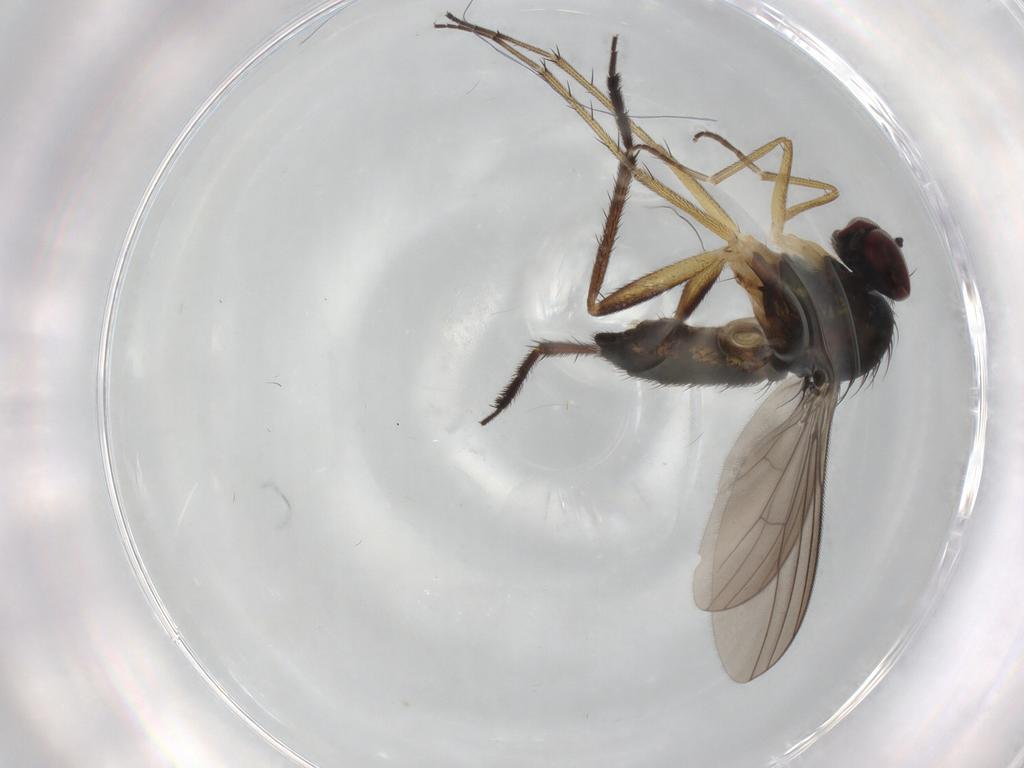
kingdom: Animalia
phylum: Arthropoda
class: Insecta
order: Diptera
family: Dolichopodidae
